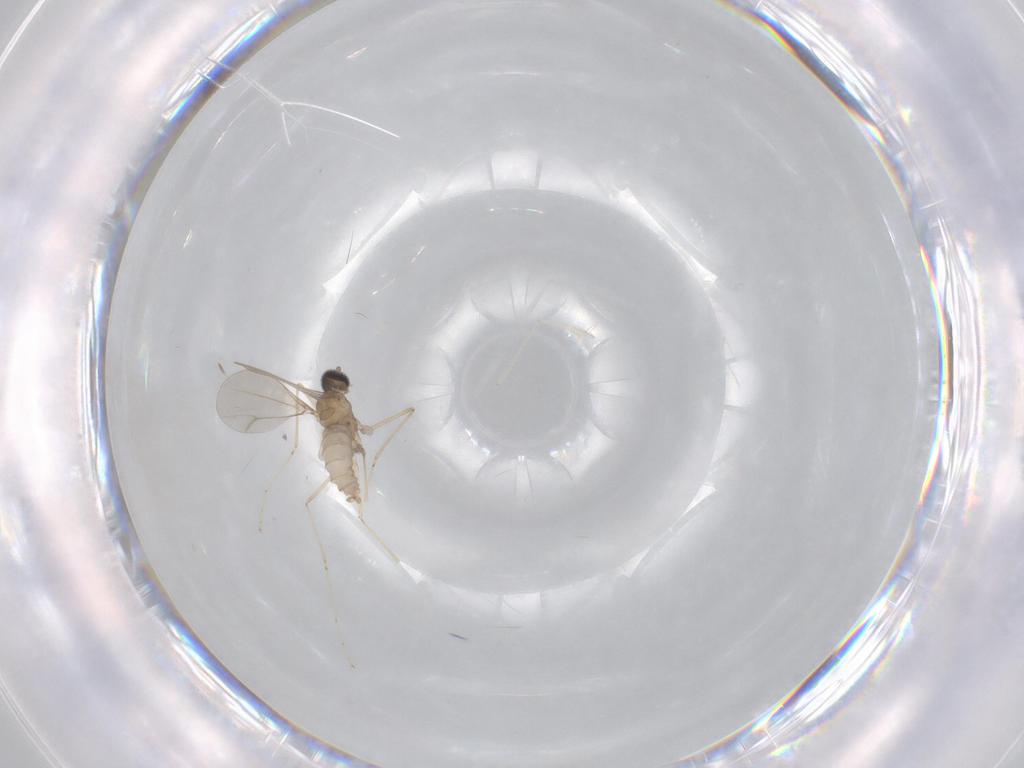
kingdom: Animalia
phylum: Arthropoda
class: Insecta
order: Diptera
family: Cecidomyiidae
